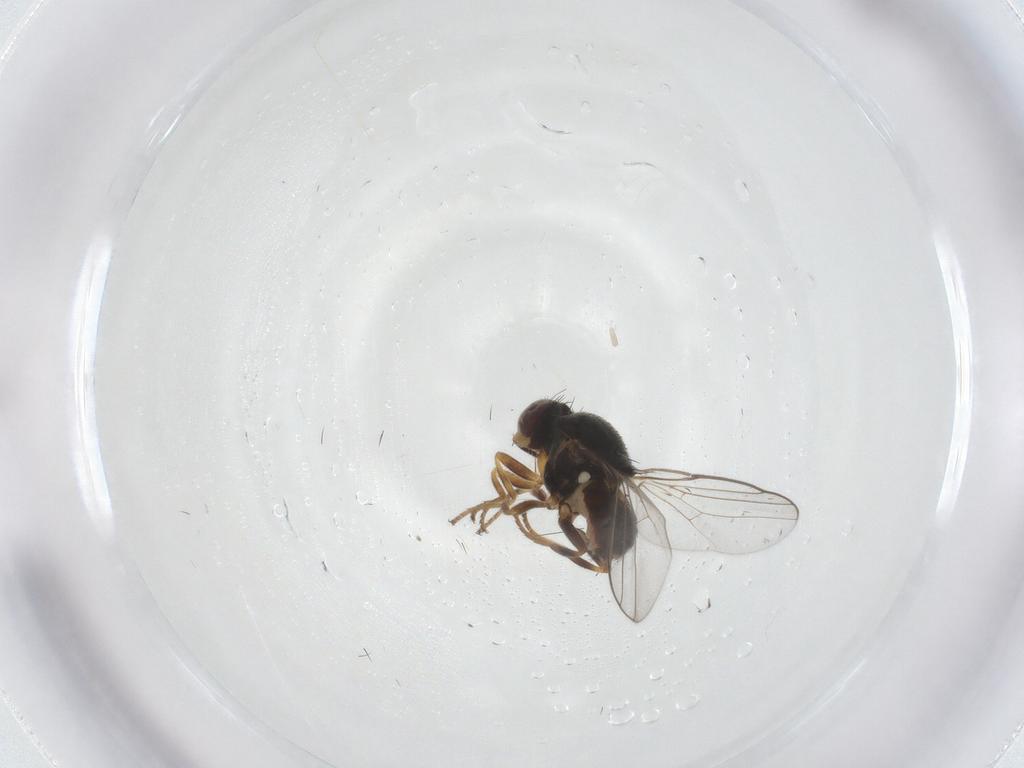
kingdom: Animalia
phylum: Arthropoda
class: Insecta
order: Diptera
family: Chloropidae
